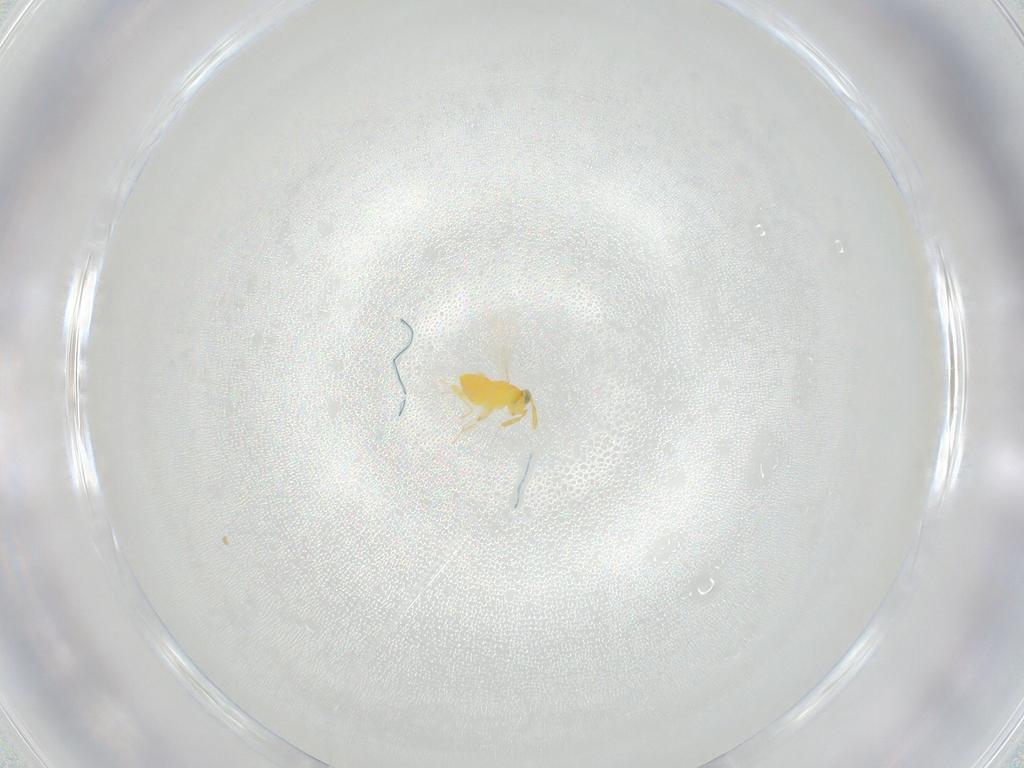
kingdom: Animalia
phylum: Arthropoda
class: Insecta
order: Hymenoptera
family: Aphelinidae
